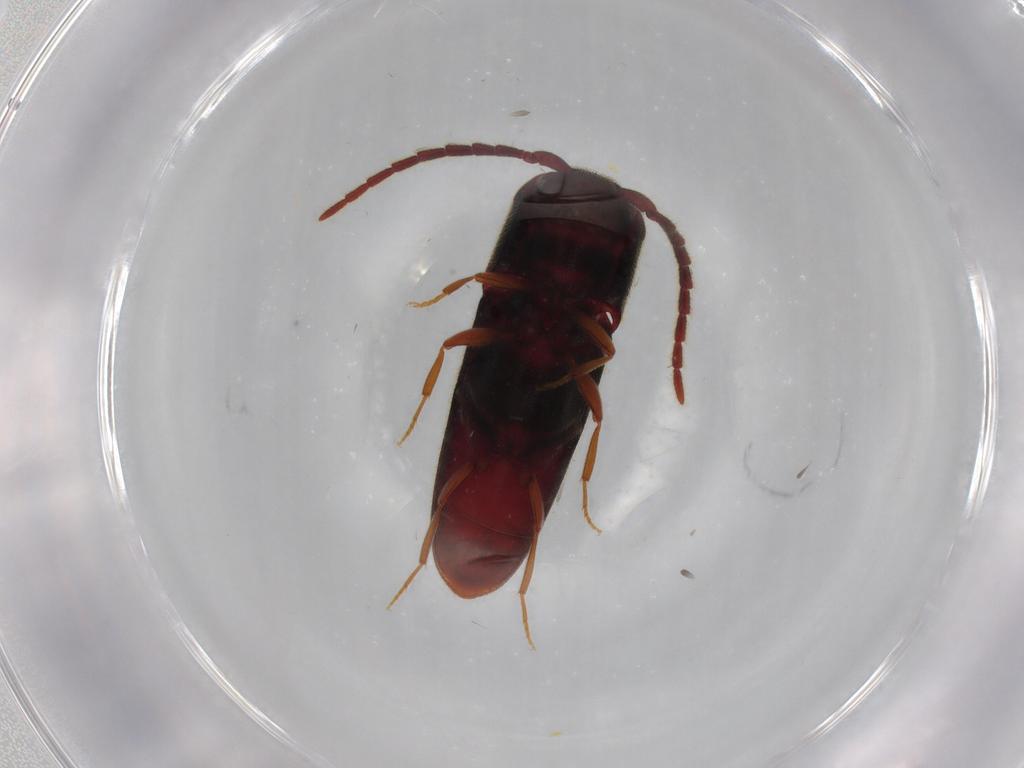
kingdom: Animalia
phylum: Arthropoda
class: Insecta
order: Coleoptera
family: Eucnemidae
